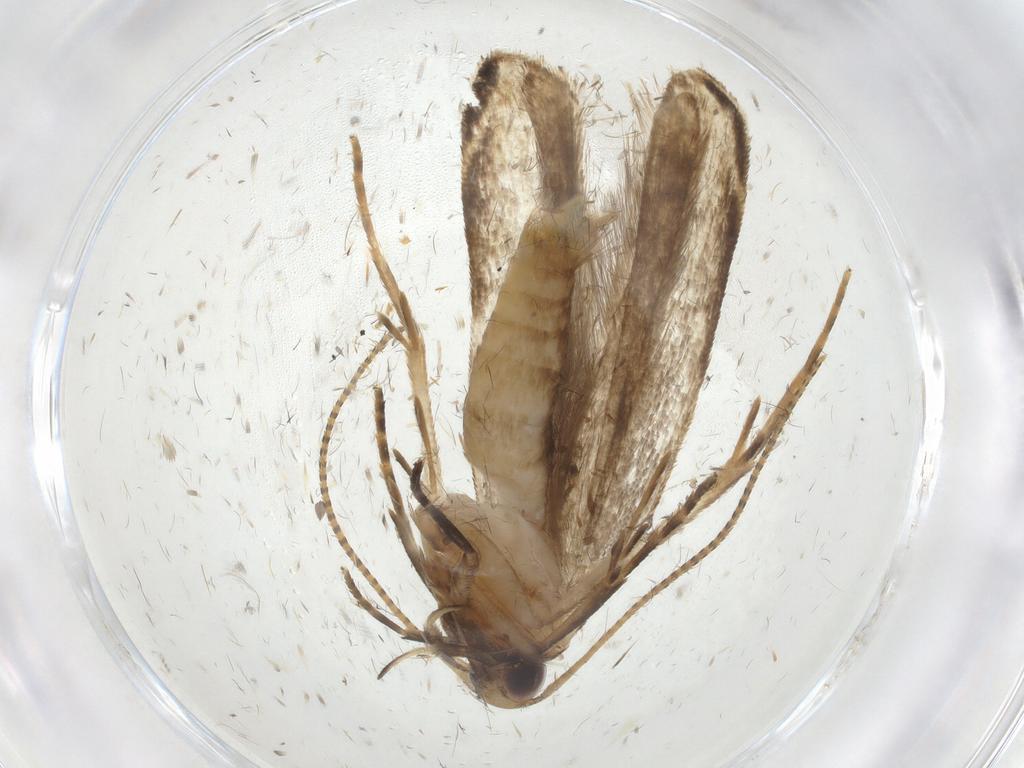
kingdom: Animalia
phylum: Arthropoda
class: Insecta
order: Lepidoptera
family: Gelechiidae
